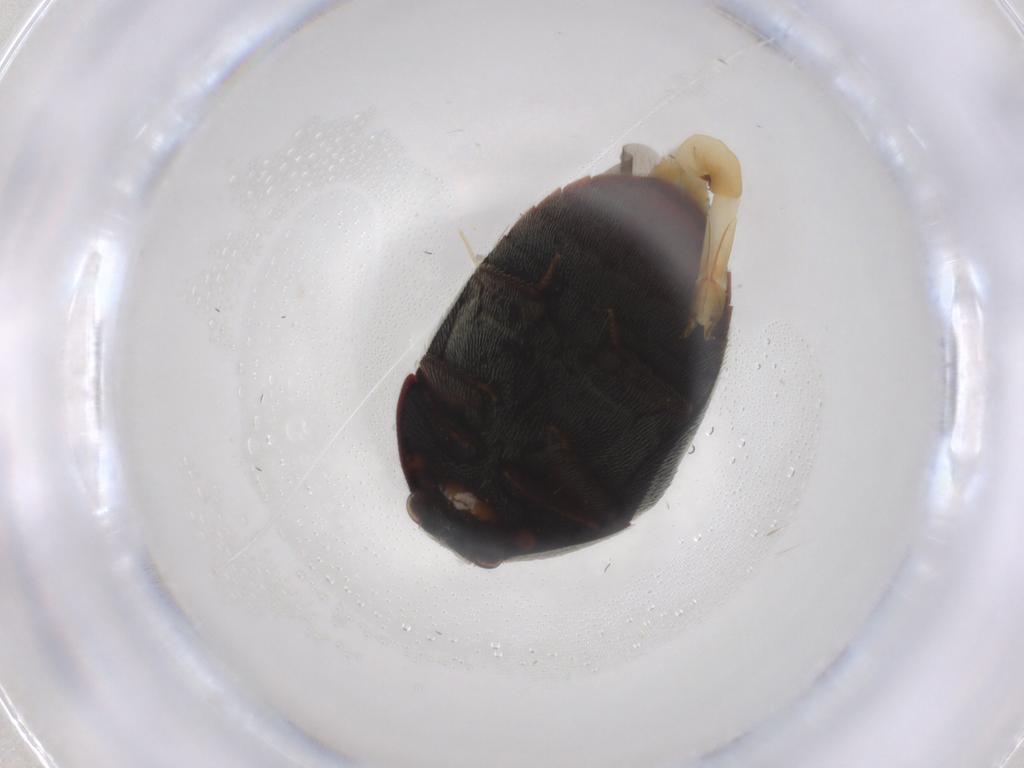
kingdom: Animalia
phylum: Arthropoda
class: Insecta
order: Coleoptera
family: Dermestidae
